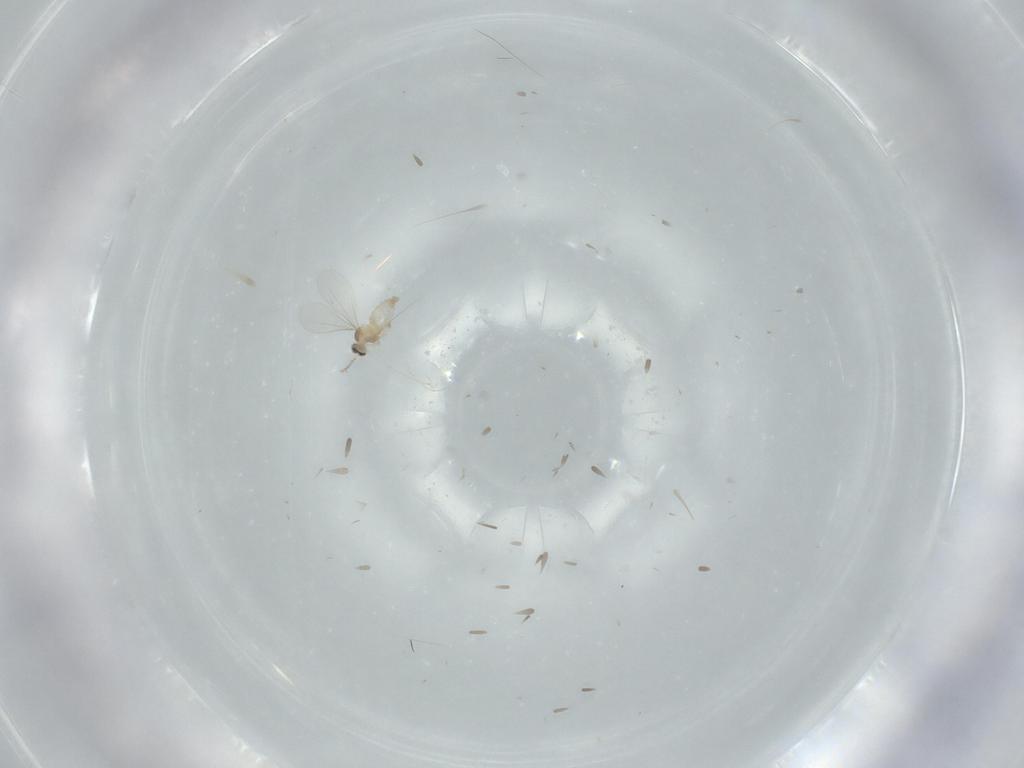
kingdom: Animalia
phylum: Arthropoda
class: Insecta
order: Diptera
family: Cecidomyiidae
